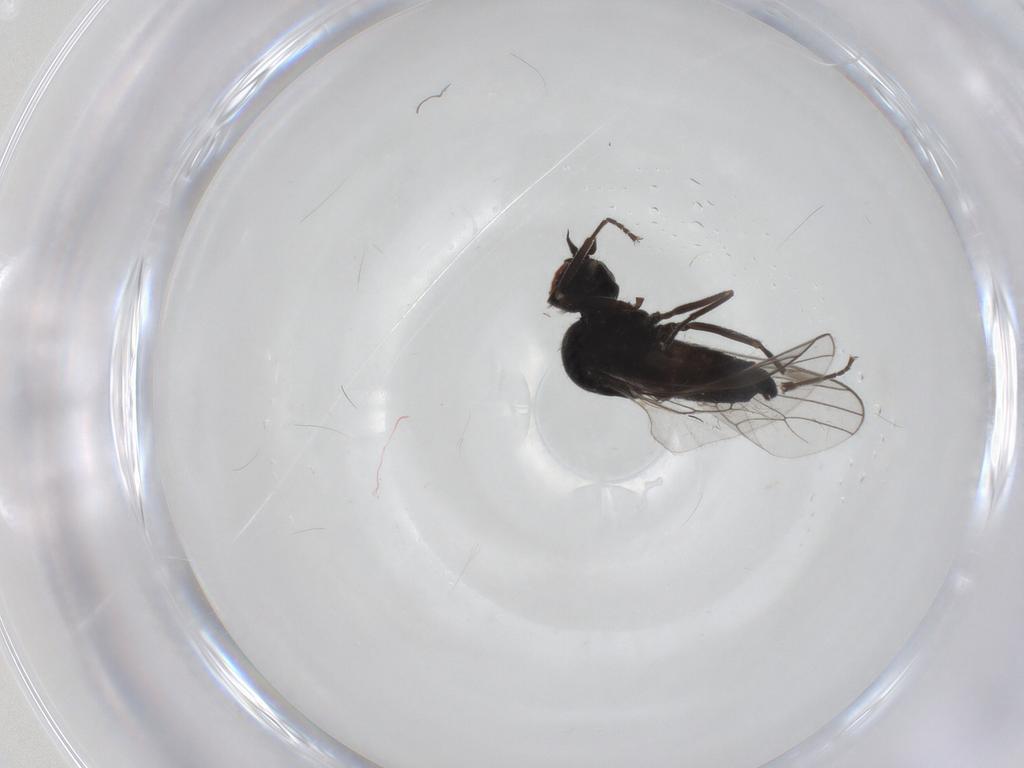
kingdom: Animalia
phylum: Arthropoda
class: Insecta
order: Diptera
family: Hybotidae
